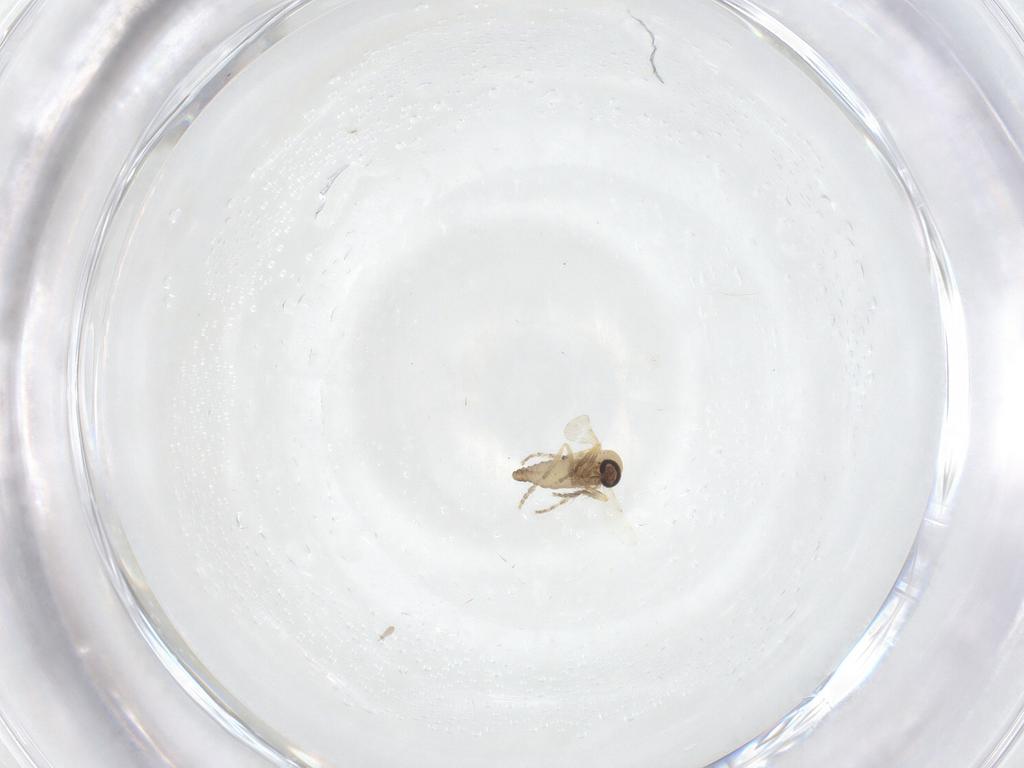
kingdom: Animalia
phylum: Arthropoda
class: Insecta
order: Diptera
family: Ceratopogonidae
